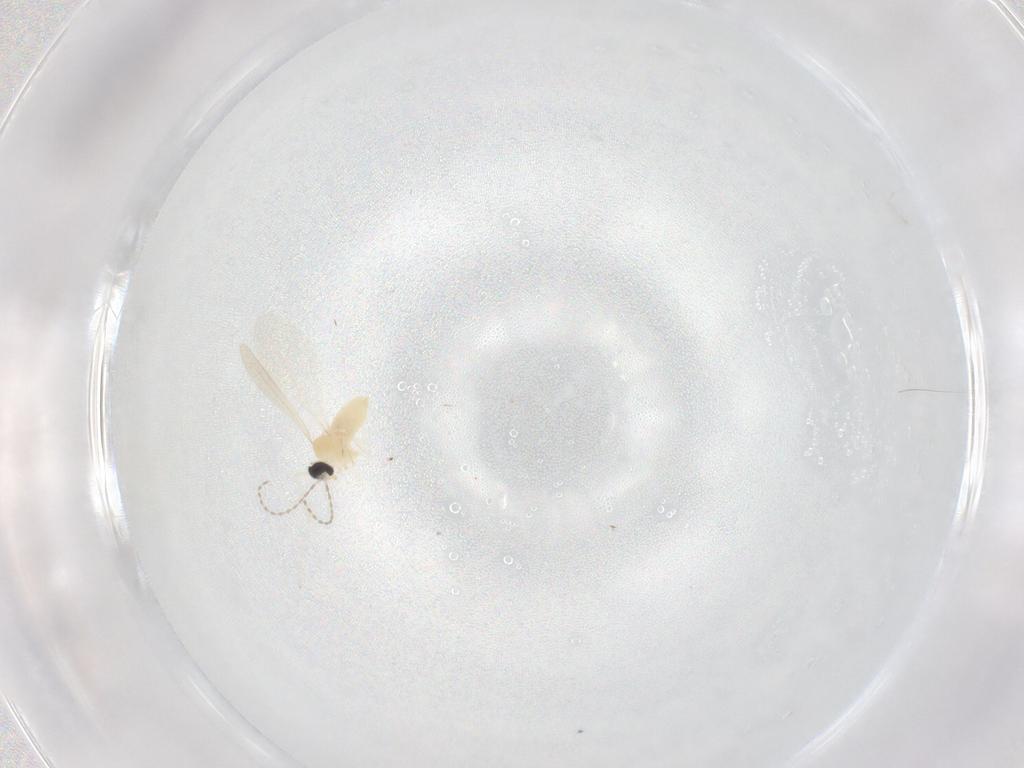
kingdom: Animalia
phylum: Arthropoda
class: Insecta
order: Diptera
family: Cecidomyiidae
